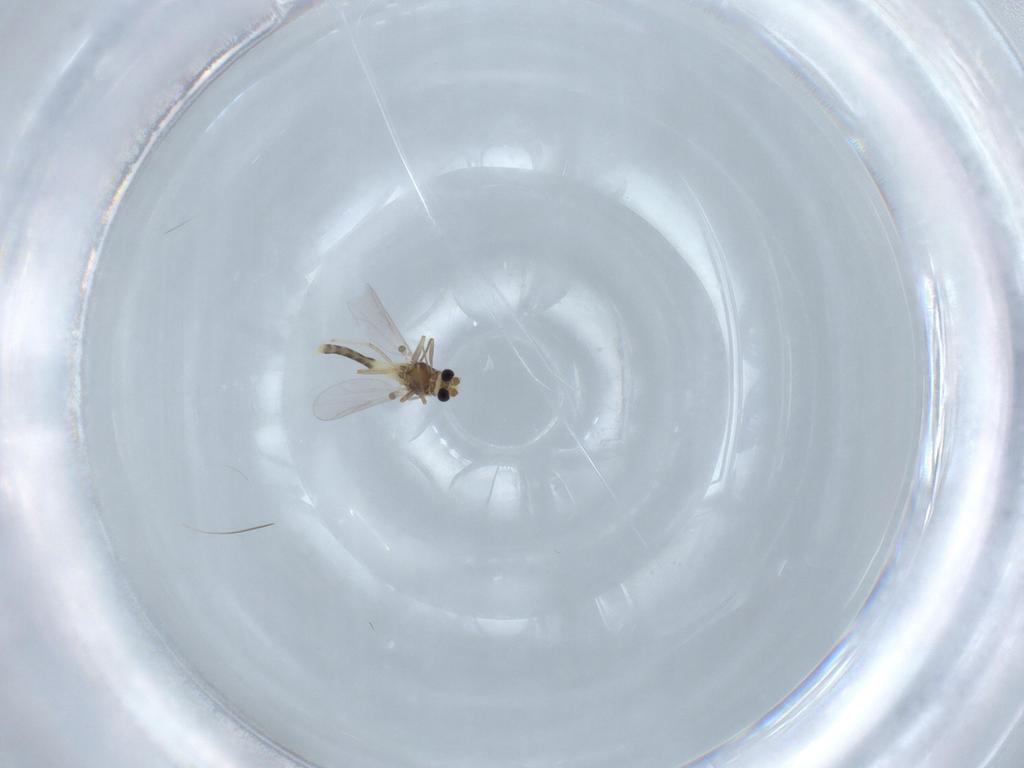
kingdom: Animalia
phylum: Arthropoda
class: Insecta
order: Diptera
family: Chironomidae
